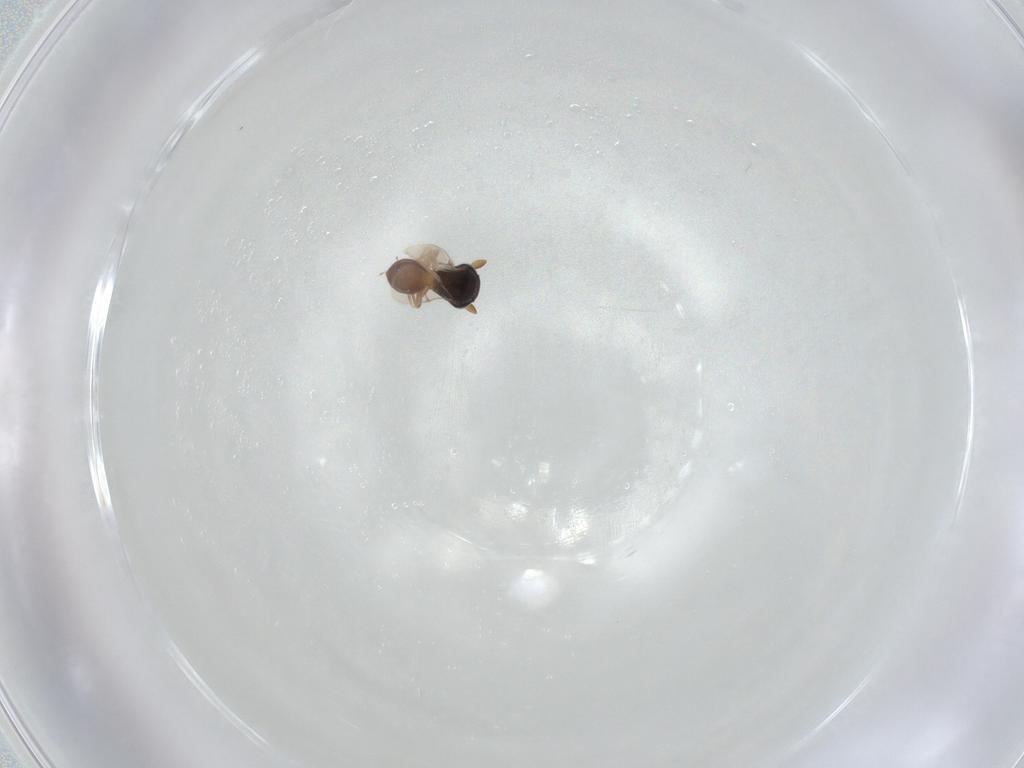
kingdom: Animalia
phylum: Arthropoda
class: Insecta
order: Hymenoptera
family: Scelionidae
